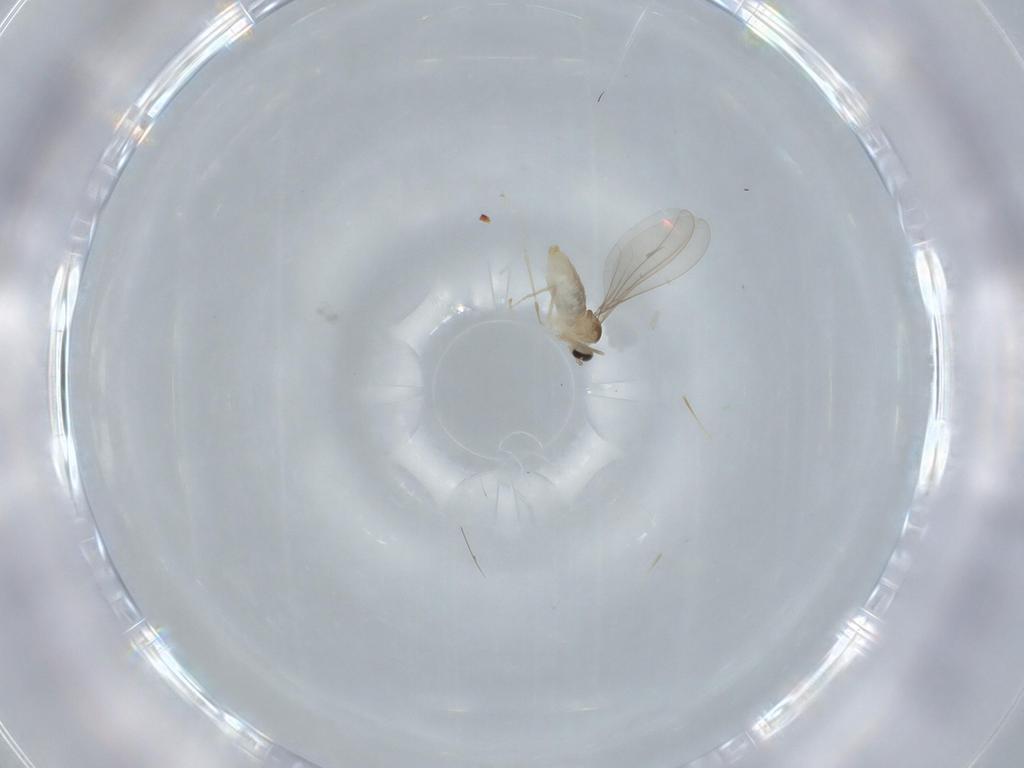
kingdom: Animalia
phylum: Arthropoda
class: Insecta
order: Diptera
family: Cecidomyiidae
